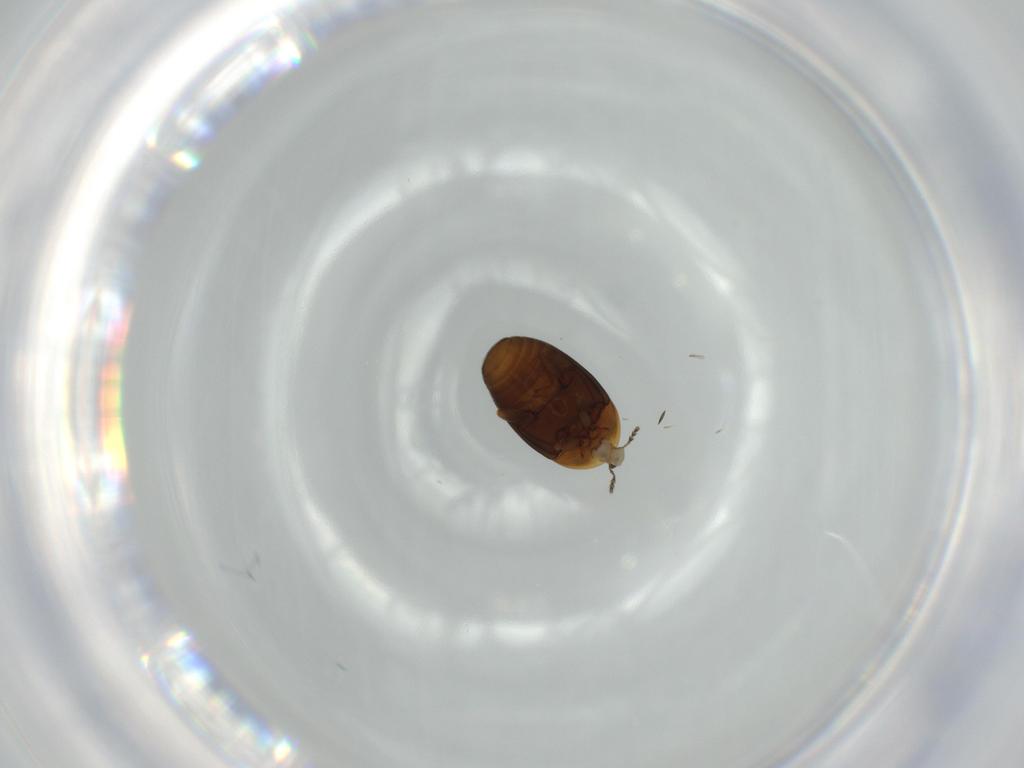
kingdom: Animalia
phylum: Arthropoda
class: Insecta
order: Coleoptera
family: Corylophidae
